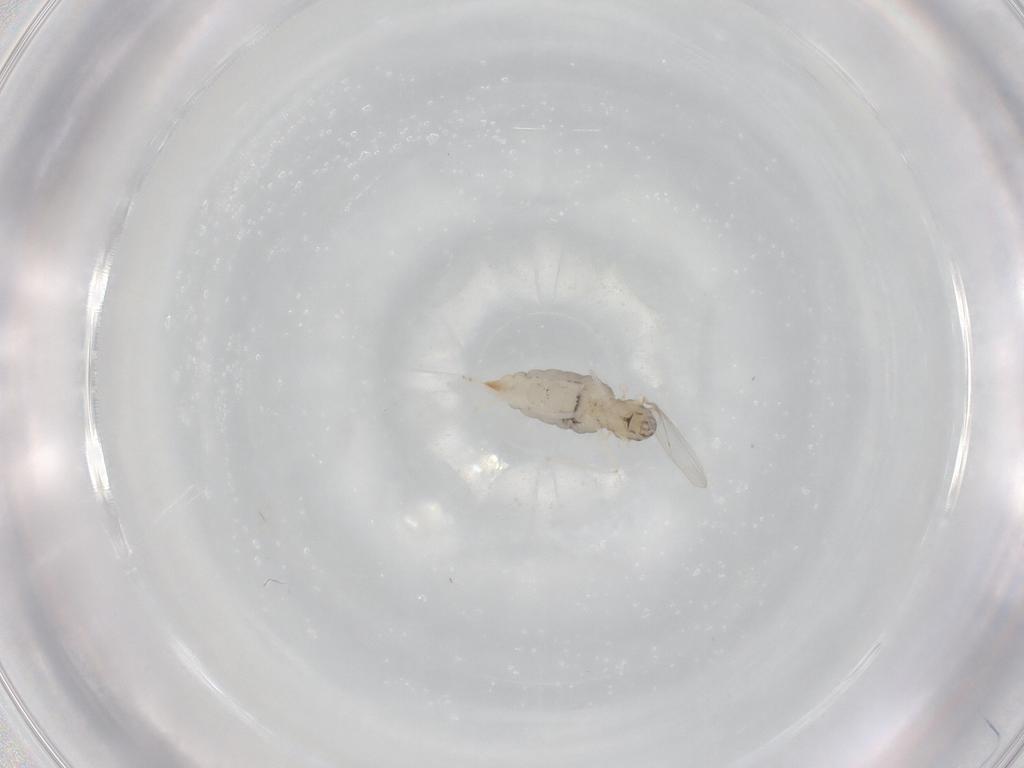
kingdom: Animalia
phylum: Arthropoda
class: Insecta
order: Diptera
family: Cecidomyiidae
